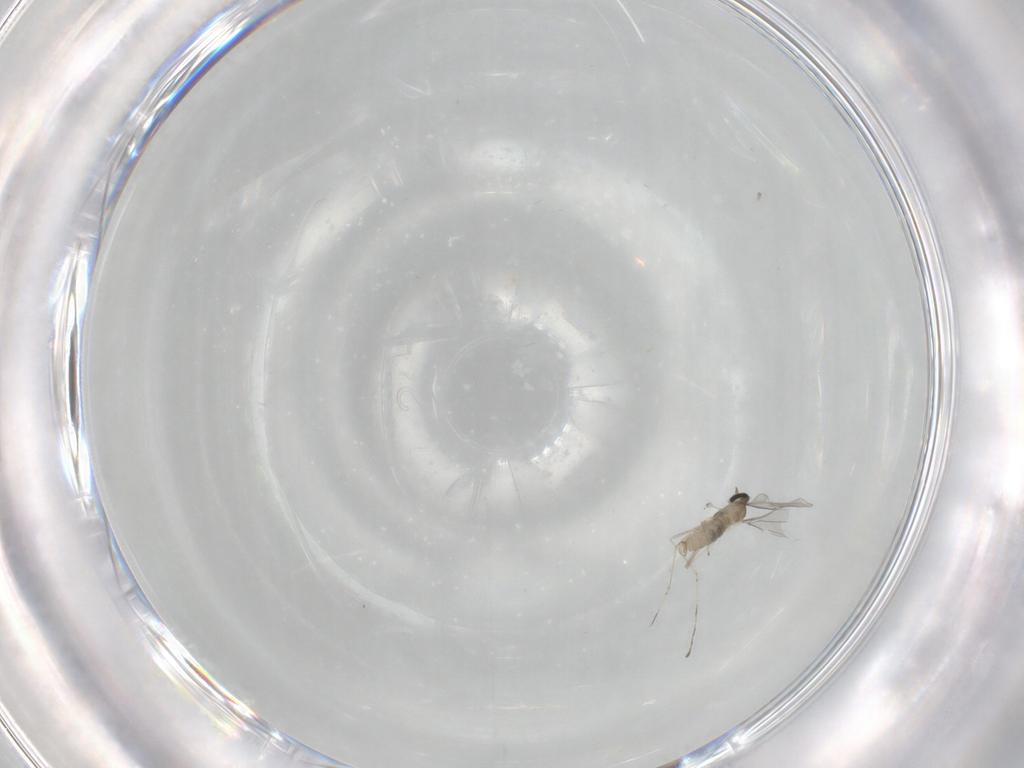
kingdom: Animalia
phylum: Arthropoda
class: Insecta
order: Diptera
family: Cecidomyiidae
